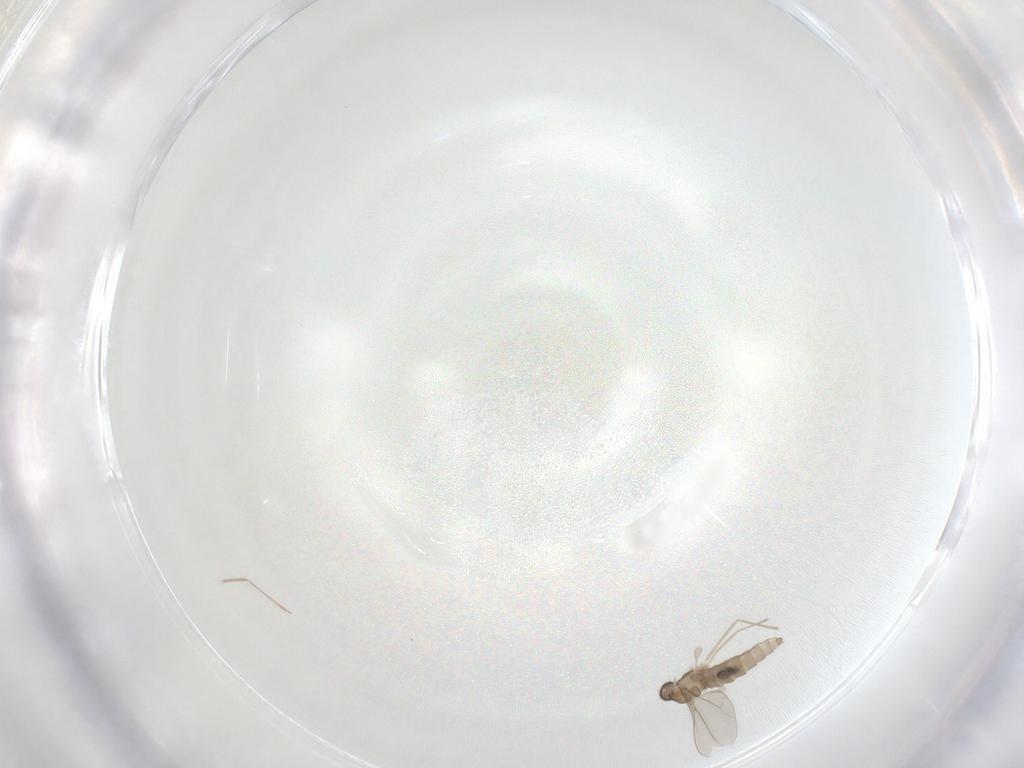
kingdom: Animalia
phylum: Arthropoda
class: Insecta
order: Diptera
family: Cecidomyiidae
